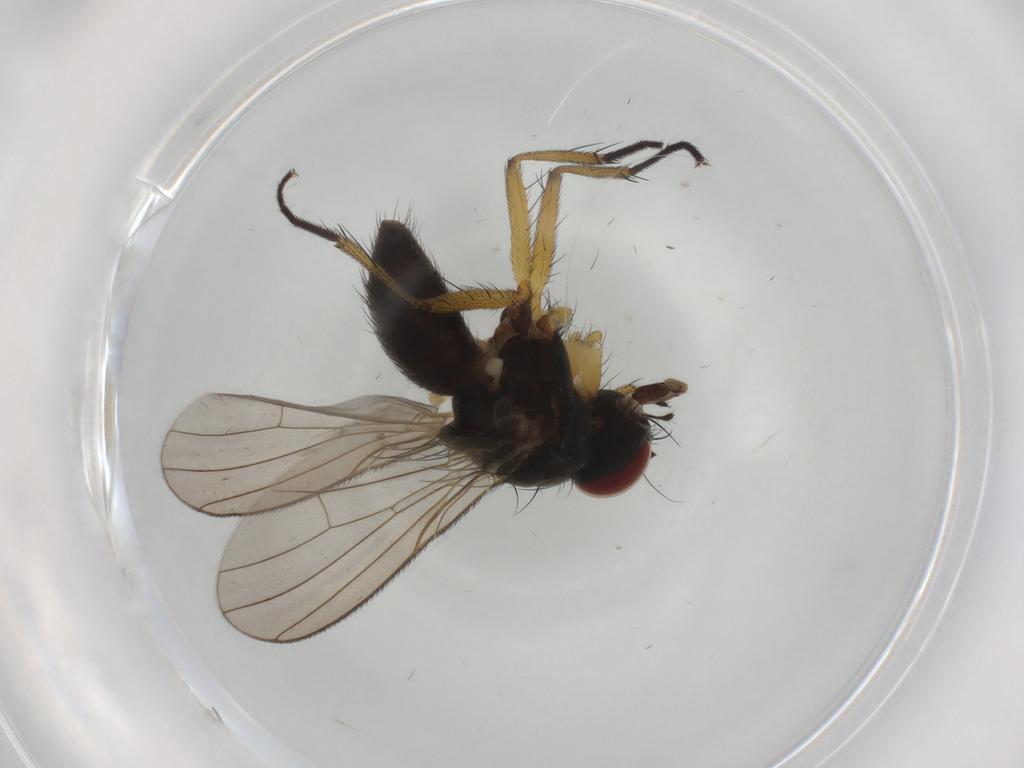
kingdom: Animalia
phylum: Arthropoda
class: Insecta
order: Diptera
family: Muscidae
